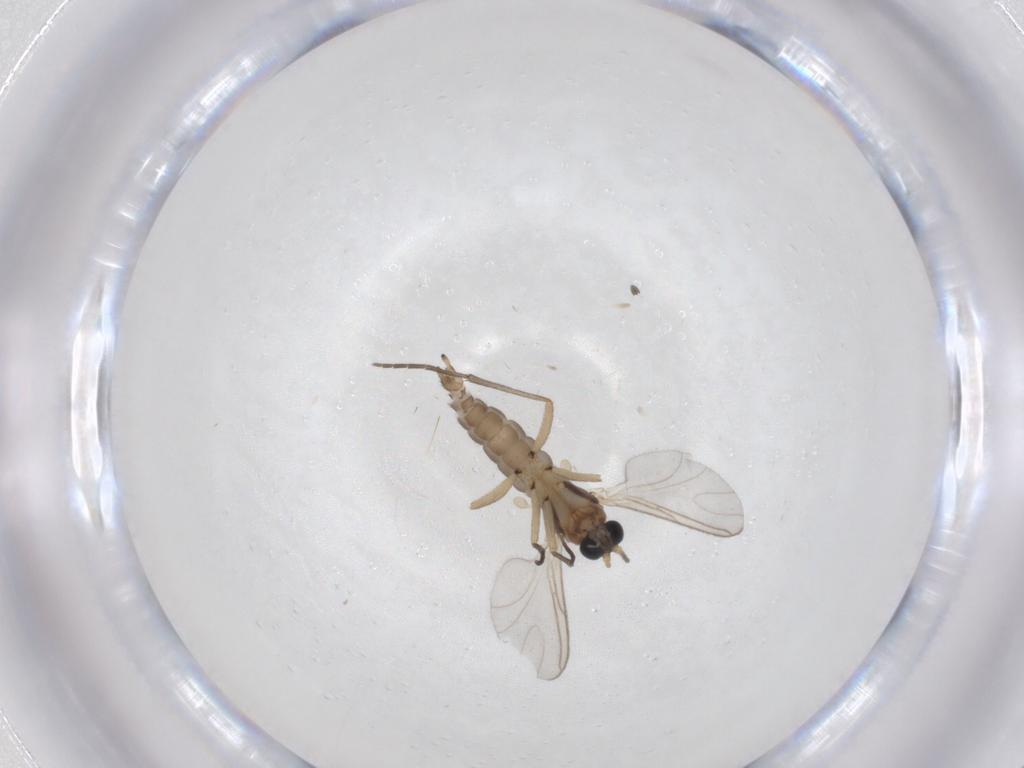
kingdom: Animalia
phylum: Arthropoda
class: Insecta
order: Diptera
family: Sciaridae
